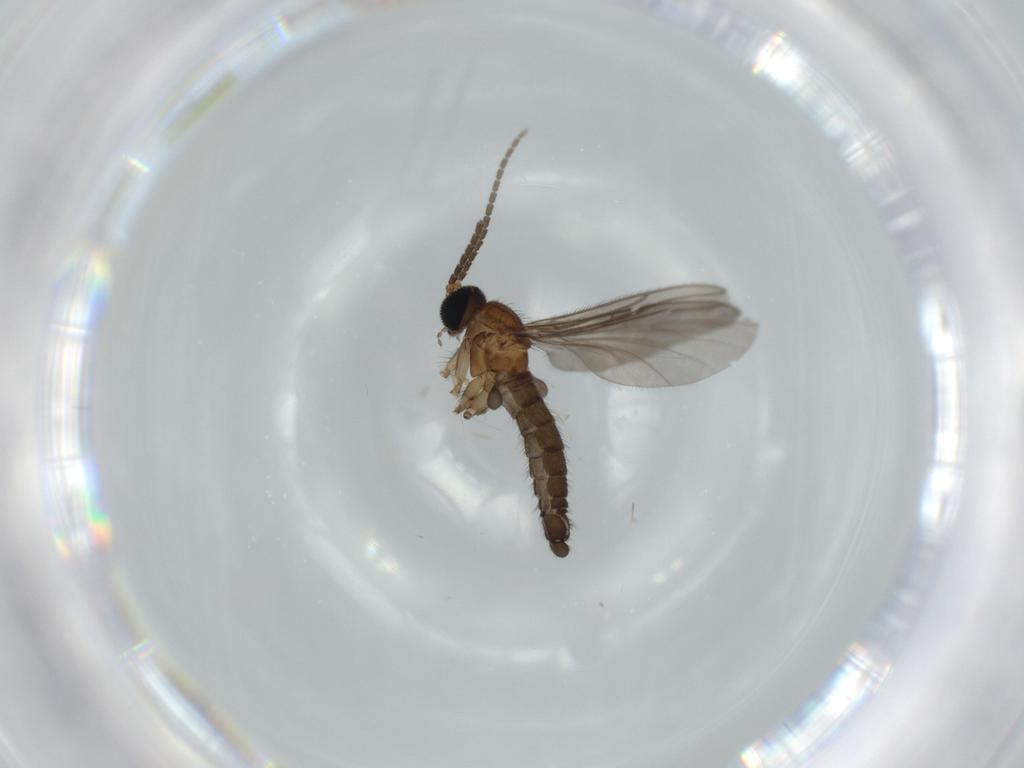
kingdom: Animalia
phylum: Arthropoda
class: Insecta
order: Diptera
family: Sciaridae
